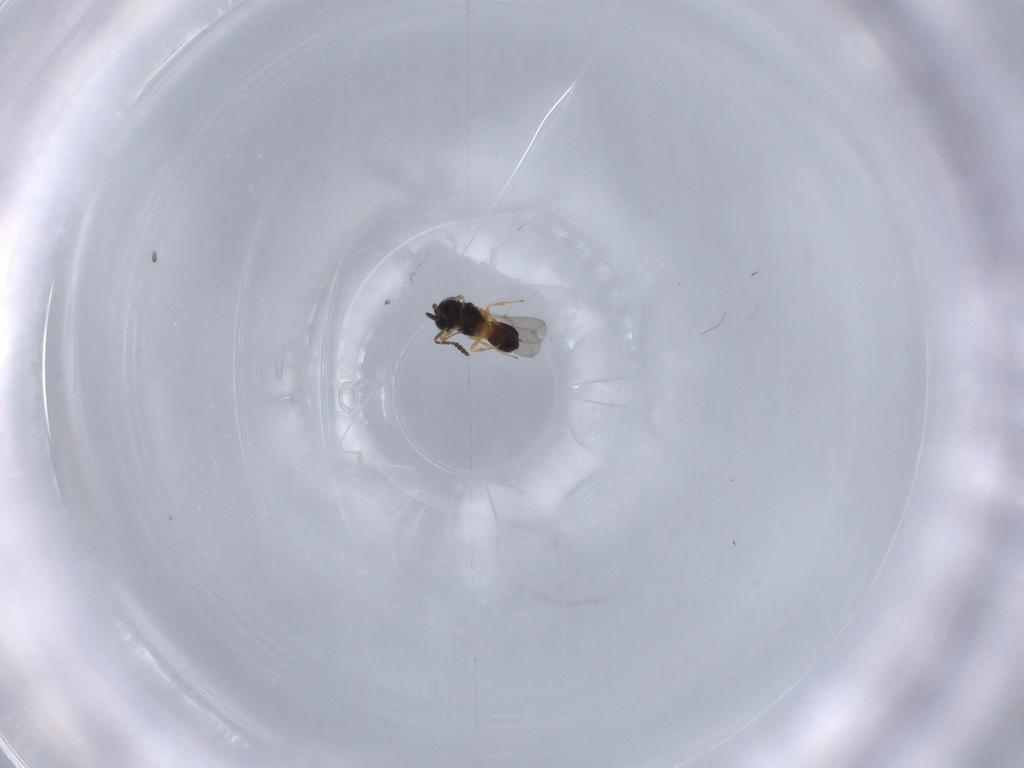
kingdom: Animalia
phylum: Arthropoda
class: Insecta
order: Hymenoptera
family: Scelionidae
